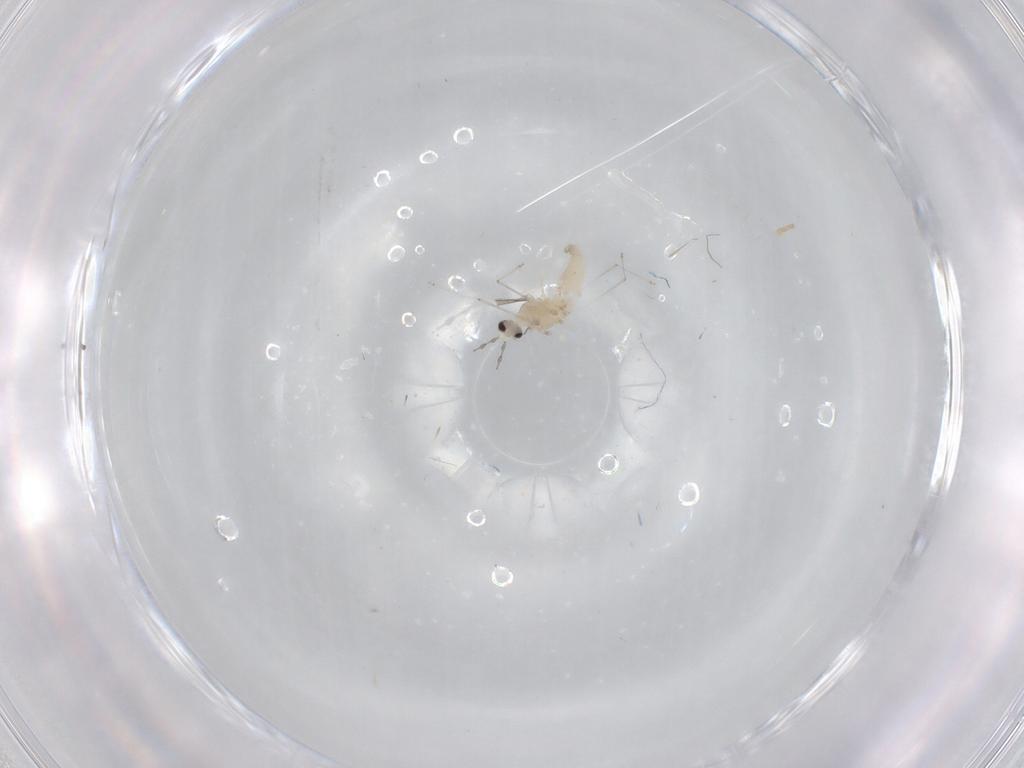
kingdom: Animalia
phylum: Arthropoda
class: Insecta
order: Diptera
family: Cecidomyiidae
